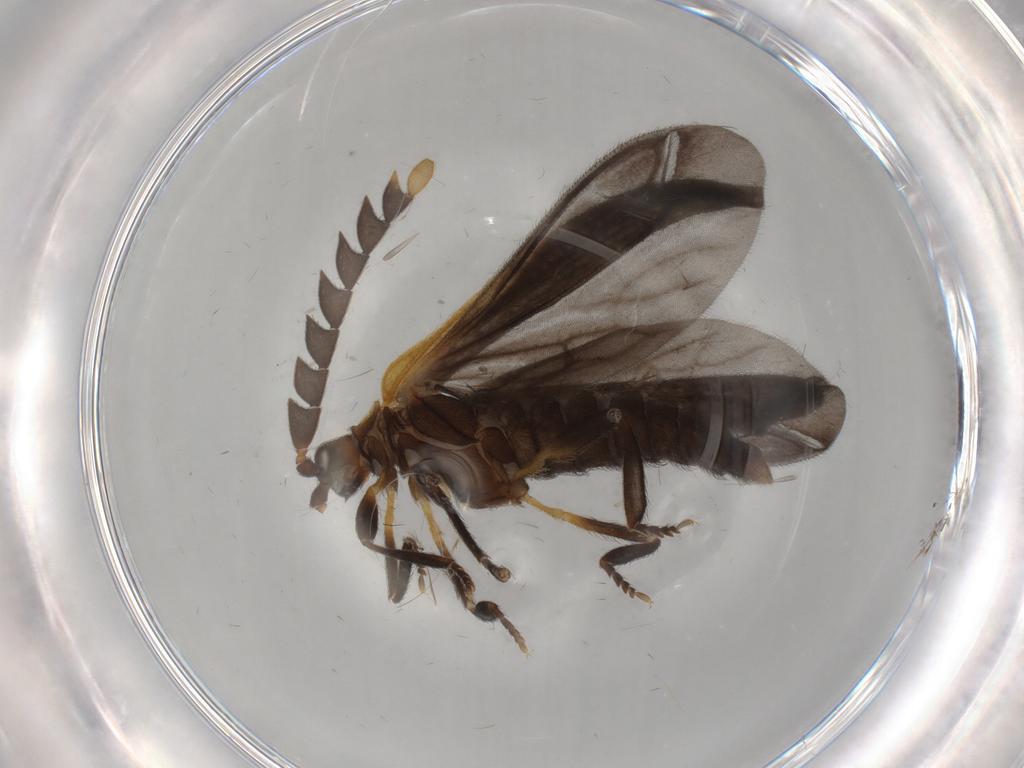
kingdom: Animalia
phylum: Arthropoda
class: Insecta
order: Coleoptera
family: Lycidae
